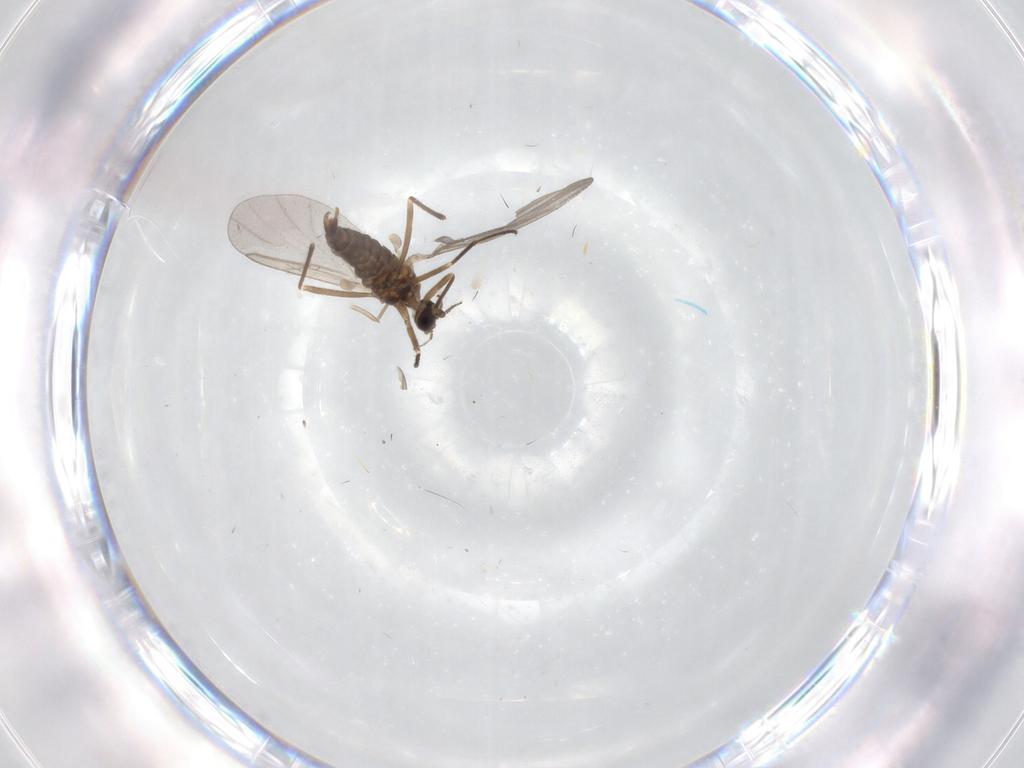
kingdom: Animalia
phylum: Arthropoda
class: Insecta
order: Diptera
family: Cecidomyiidae
